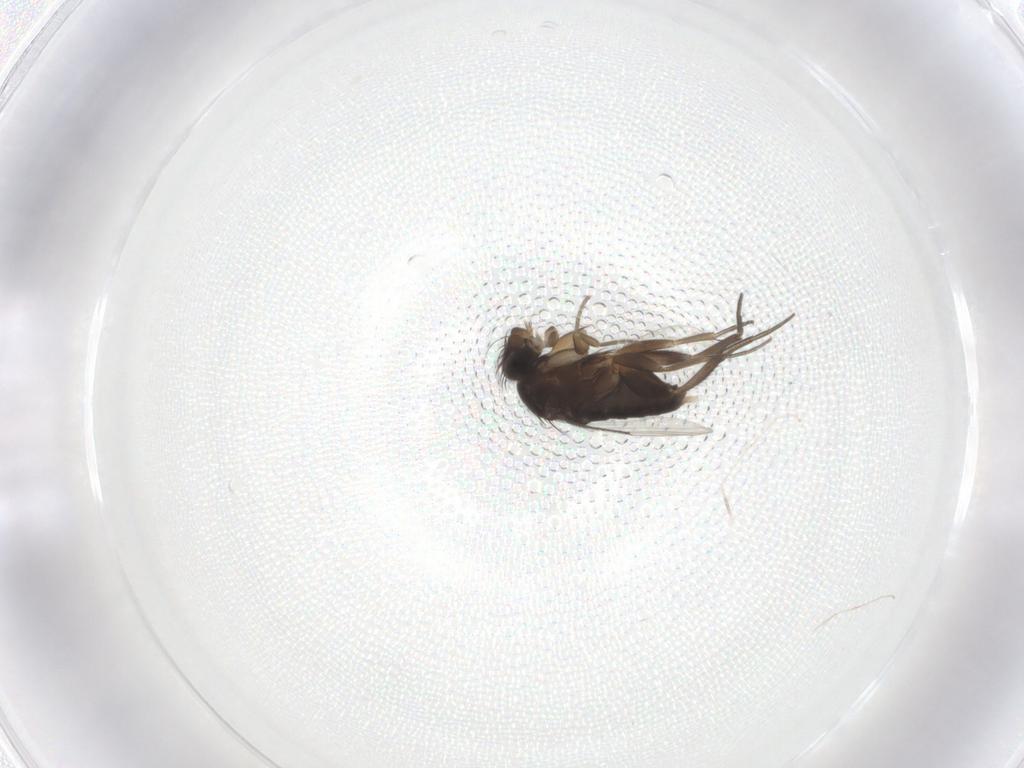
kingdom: Animalia
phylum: Arthropoda
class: Insecta
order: Diptera
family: Phoridae
